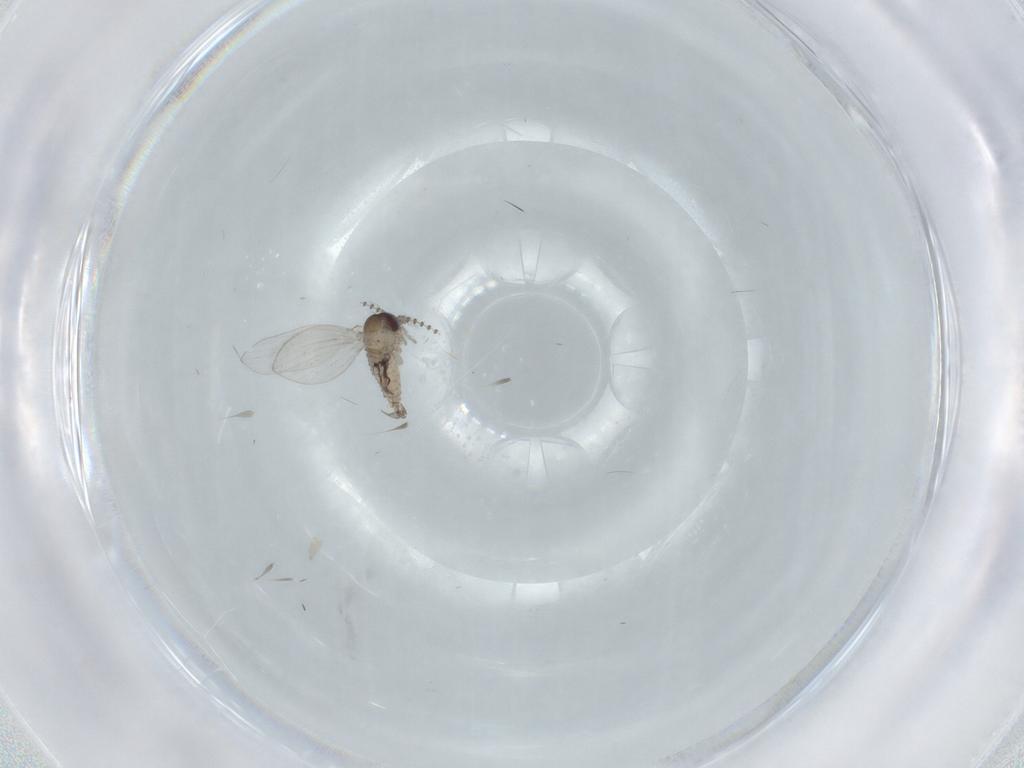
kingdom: Animalia
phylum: Arthropoda
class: Insecta
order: Diptera
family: Psychodidae
